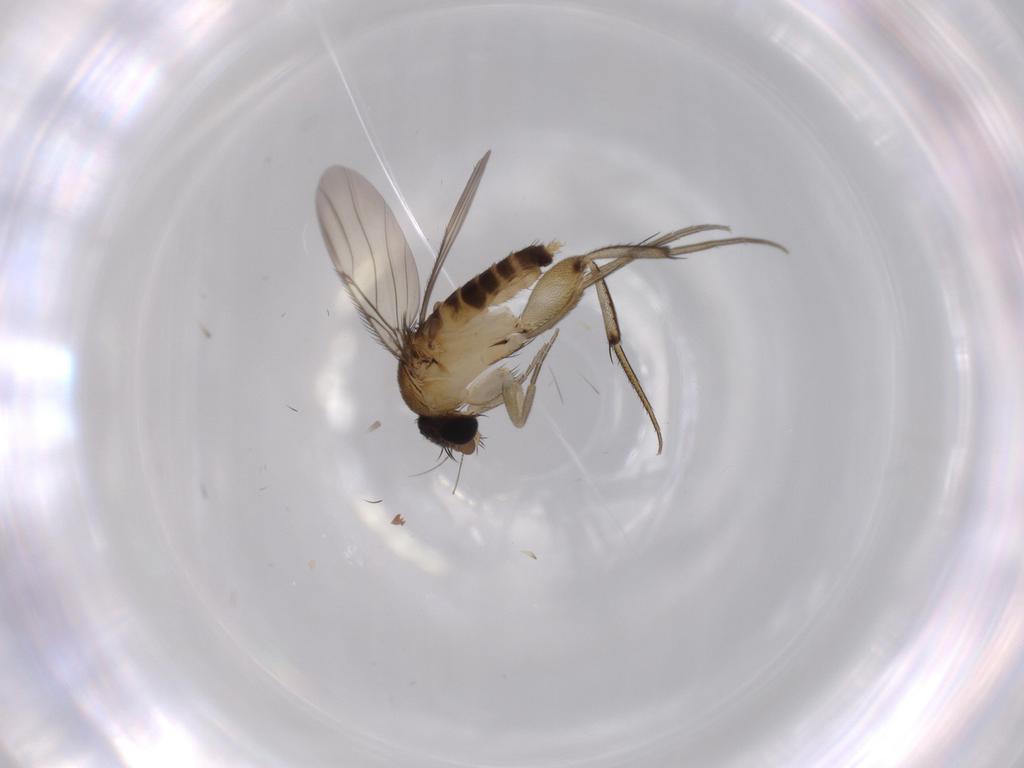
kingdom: Animalia
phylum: Arthropoda
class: Insecta
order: Diptera
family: Phoridae
